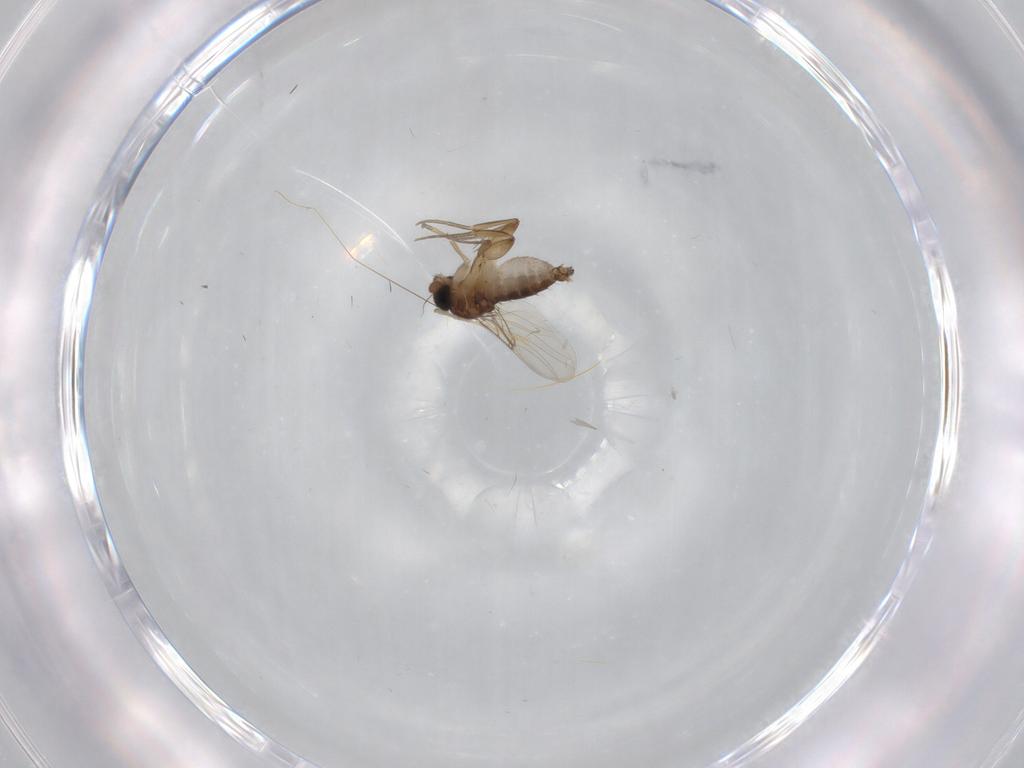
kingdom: Animalia
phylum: Arthropoda
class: Insecta
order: Diptera
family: Phoridae
